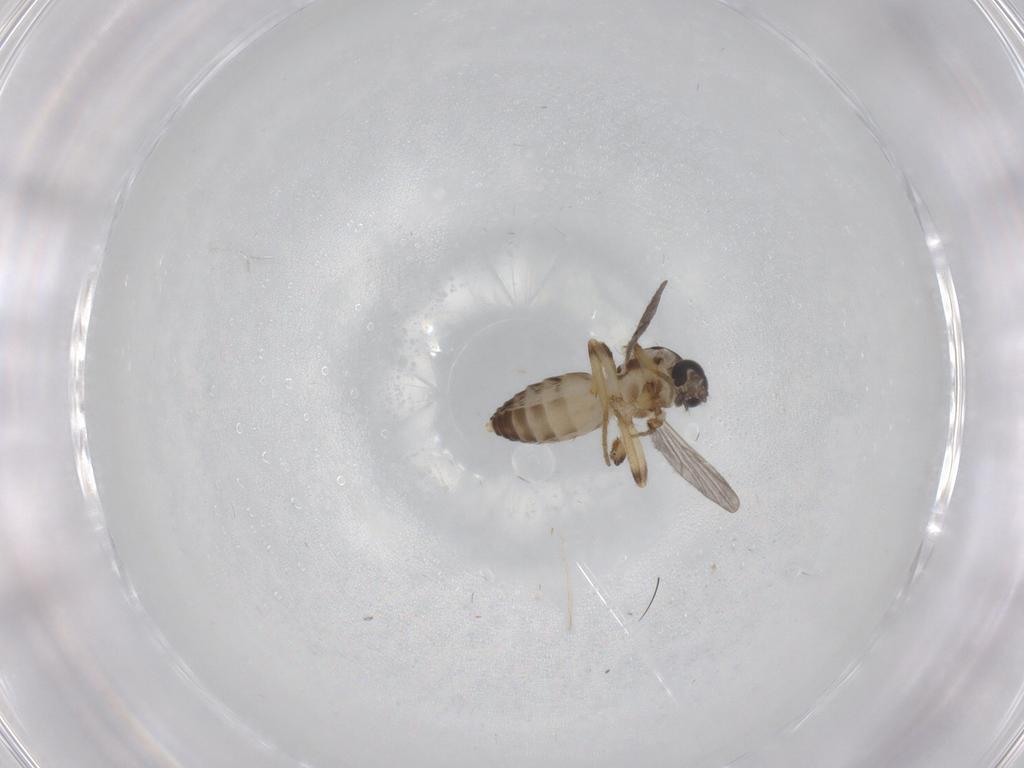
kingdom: Animalia
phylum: Arthropoda
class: Insecta
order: Diptera
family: Ceratopogonidae
